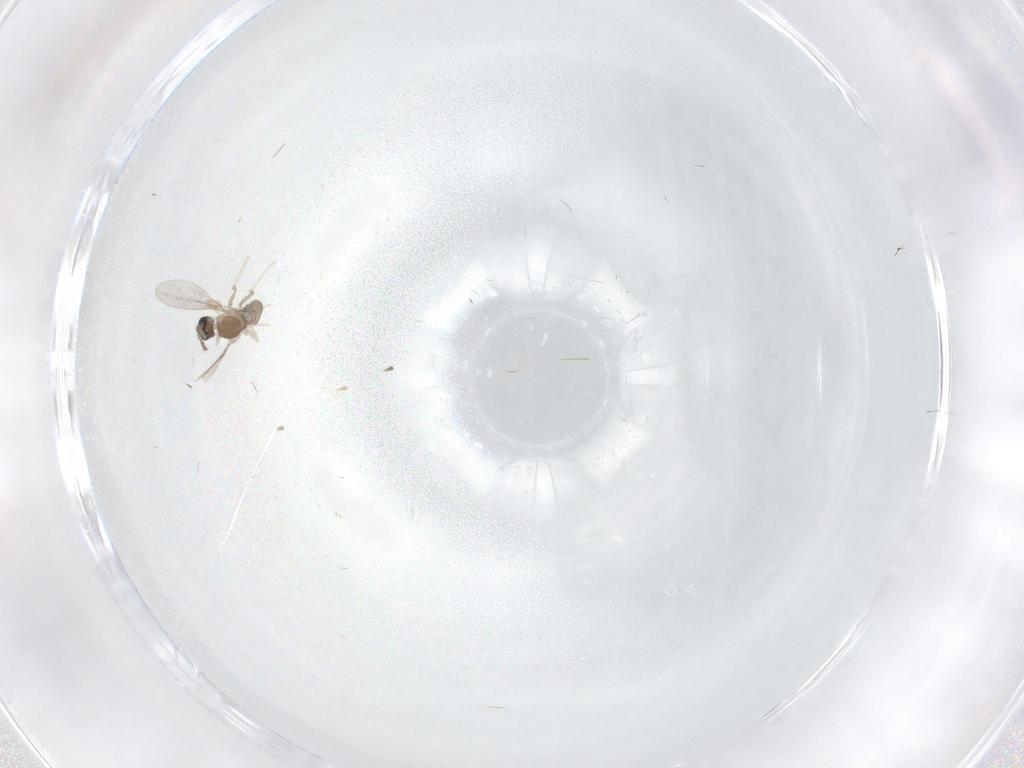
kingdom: Animalia
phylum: Arthropoda
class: Insecta
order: Diptera
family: Cecidomyiidae
